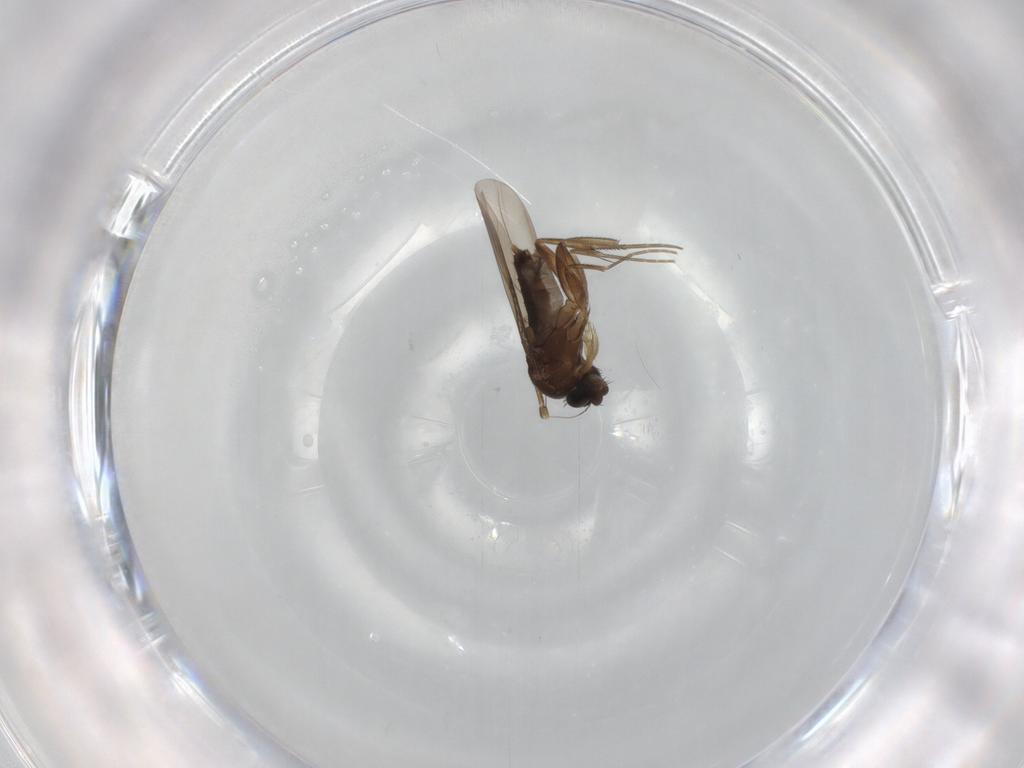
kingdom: Animalia
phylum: Arthropoda
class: Insecta
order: Diptera
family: Cecidomyiidae
